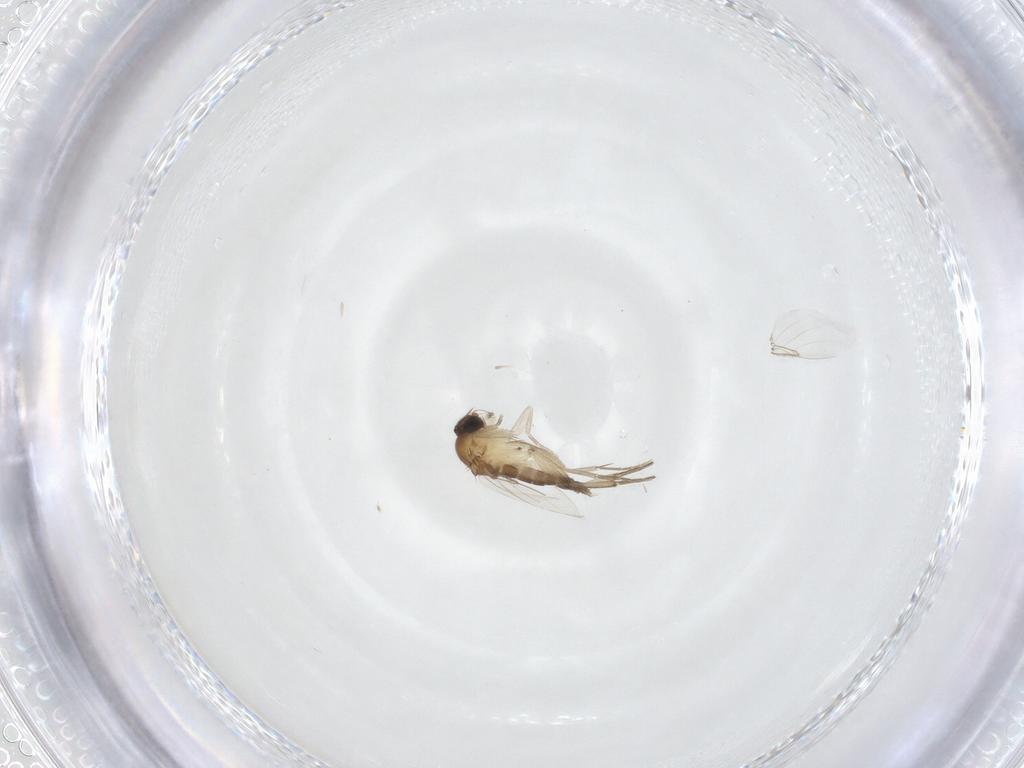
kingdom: Animalia
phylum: Arthropoda
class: Insecta
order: Diptera
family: Phoridae
